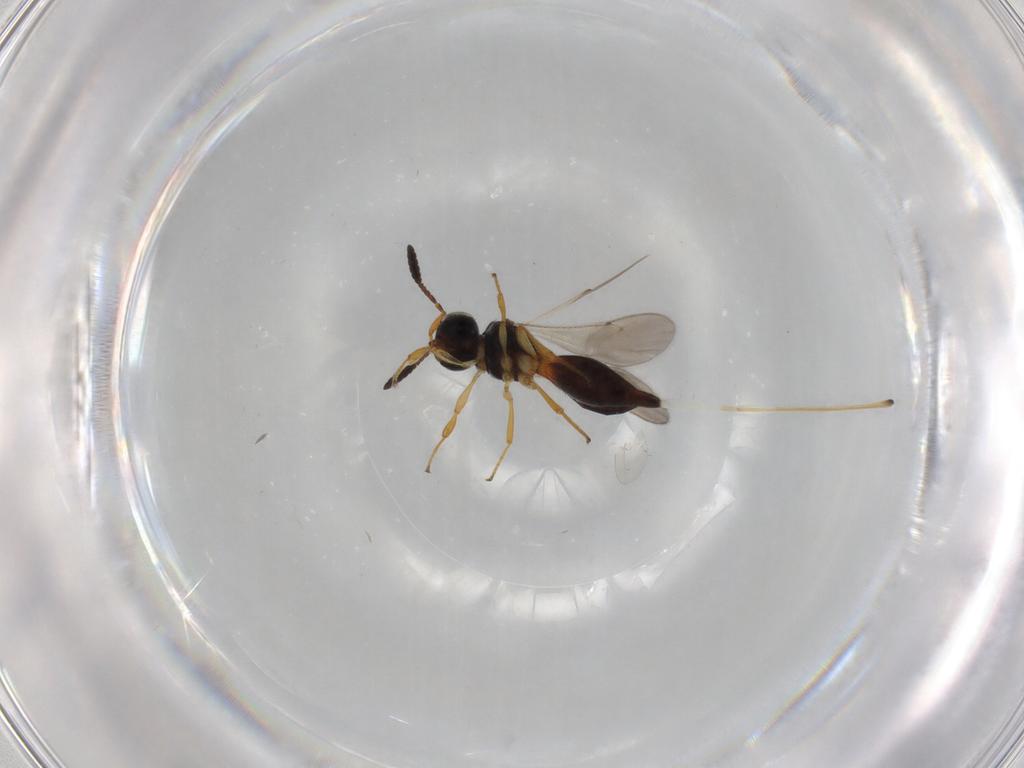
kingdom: Animalia
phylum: Arthropoda
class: Insecta
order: Hymenoptera
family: Scelionidae
